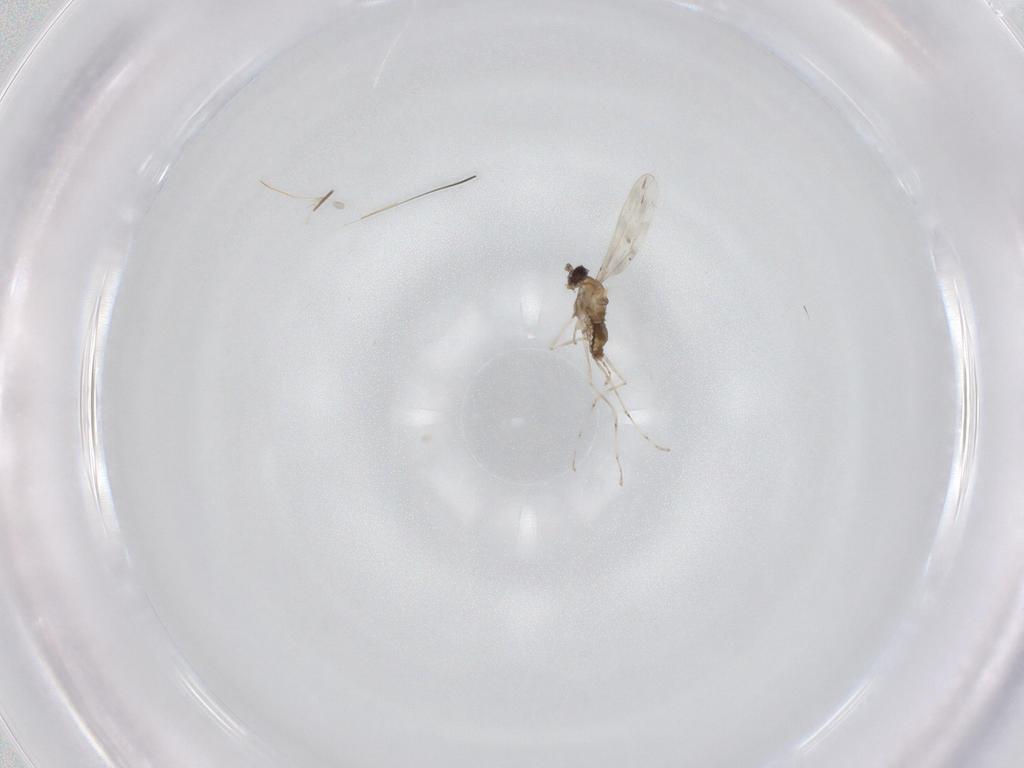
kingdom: Animalia
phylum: Arthropoda
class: Insecta
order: Diptera
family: Cecidomyiidae
